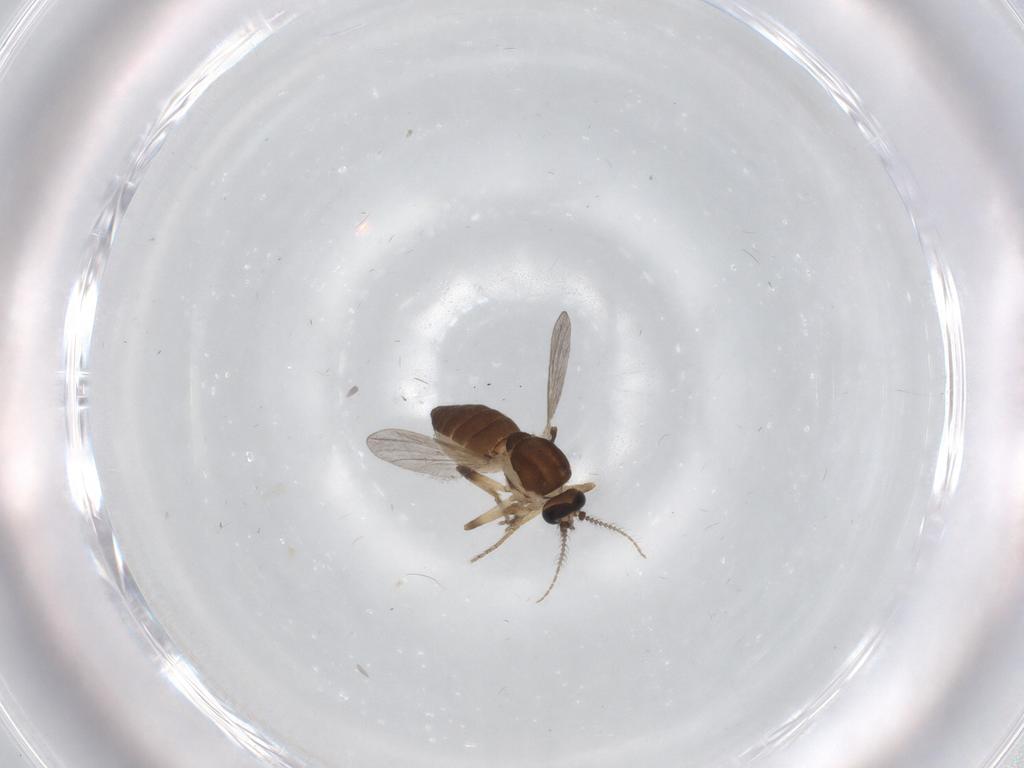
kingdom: Animalia
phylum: Arthropoda
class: Insecta
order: Diptera
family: Ceratopogonidae
